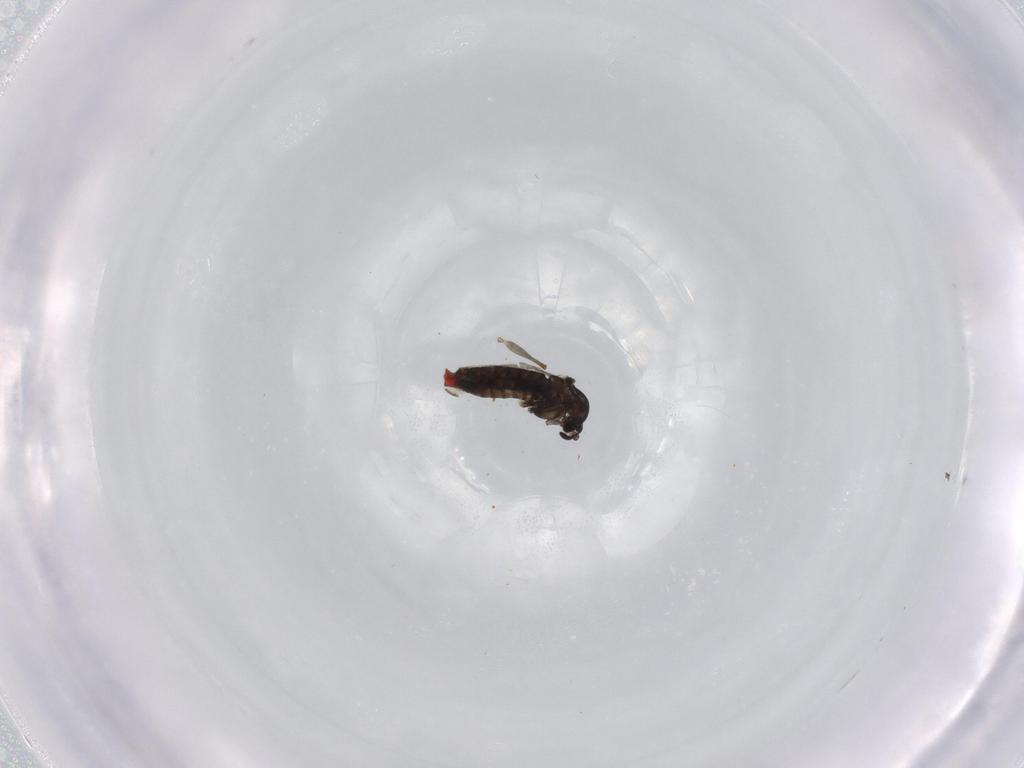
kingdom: Animalia
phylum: Arthropoda
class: Insecta
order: Diptera
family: Chironomidae
